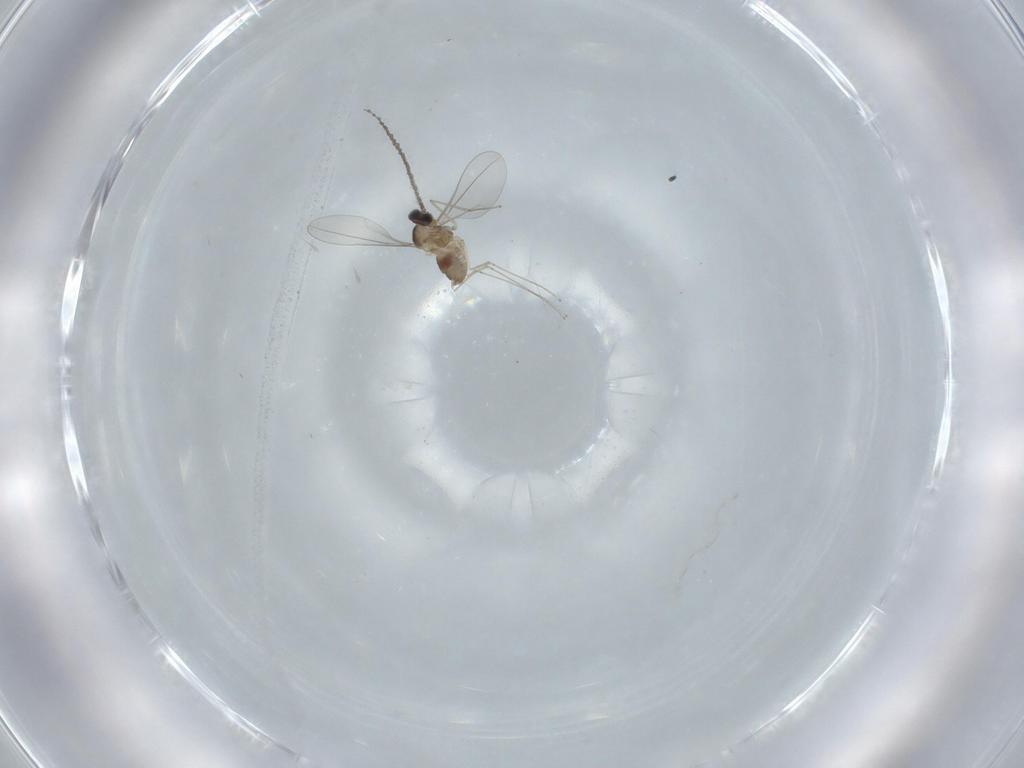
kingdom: Animalia
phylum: Arthropoda
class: Insecta
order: Diptera
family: Cecidomyiidae
